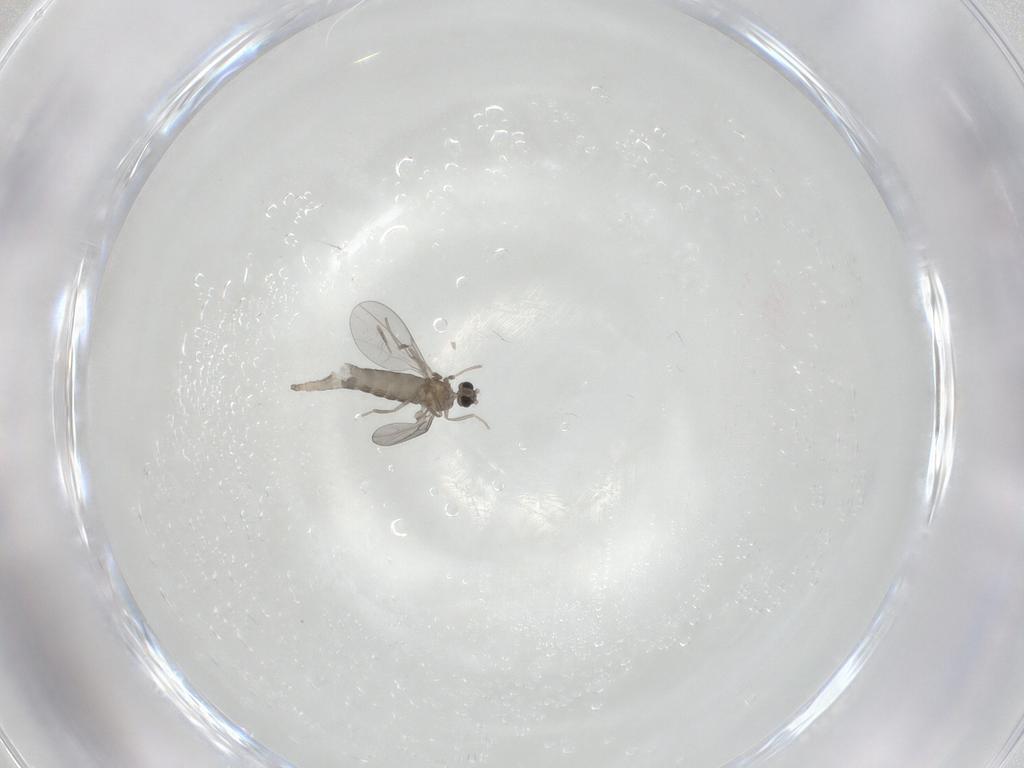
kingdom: Animalia
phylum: Arthropoda
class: Insecta
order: Diptera
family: Cecidomyiidae
